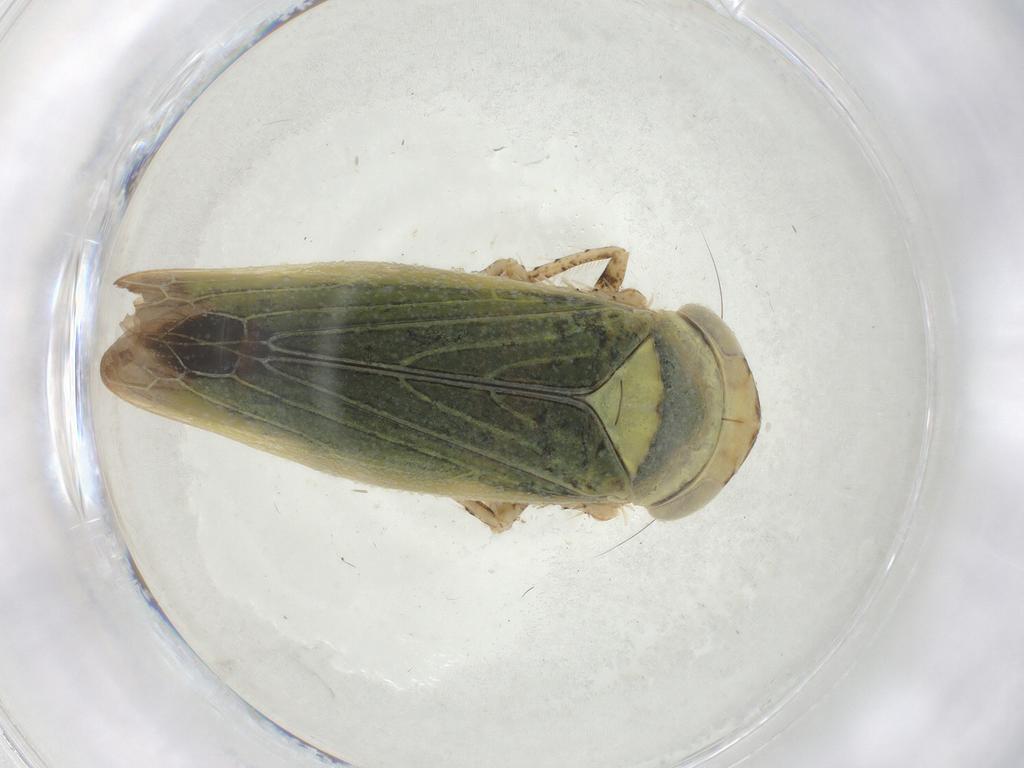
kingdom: Animalia
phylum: Arthropoda
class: Insecta
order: Hemiptera
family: Cicadellidae
